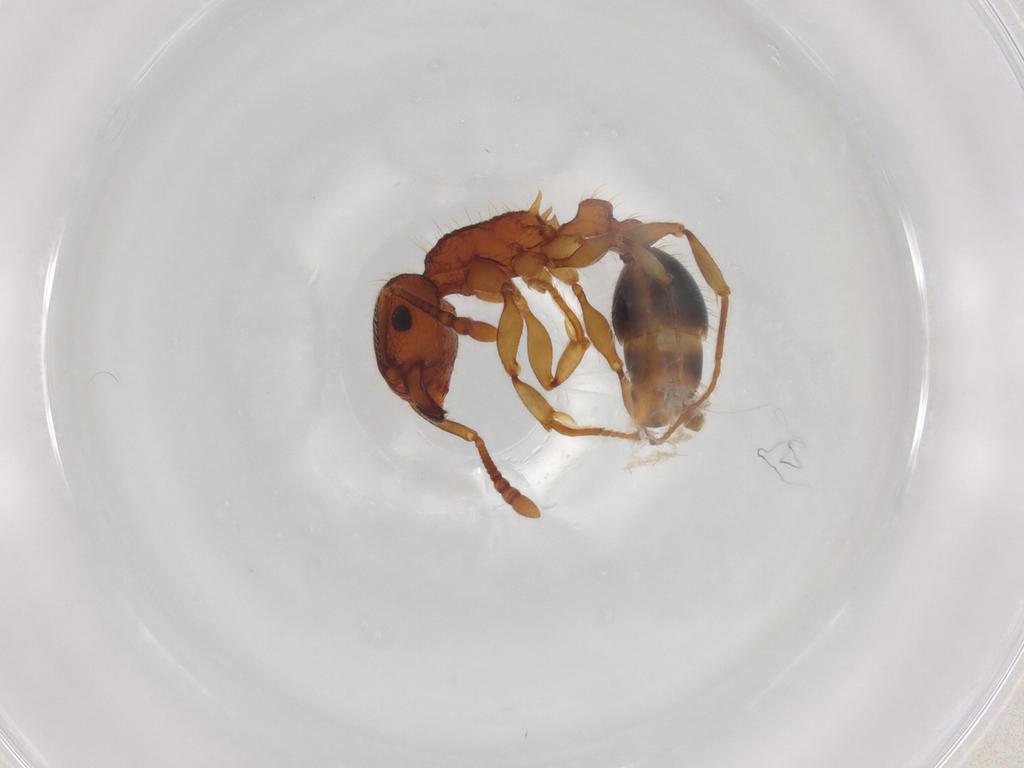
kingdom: Animalia
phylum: Arthropoda
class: Insecta
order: Hymenoptera
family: Formicidae
